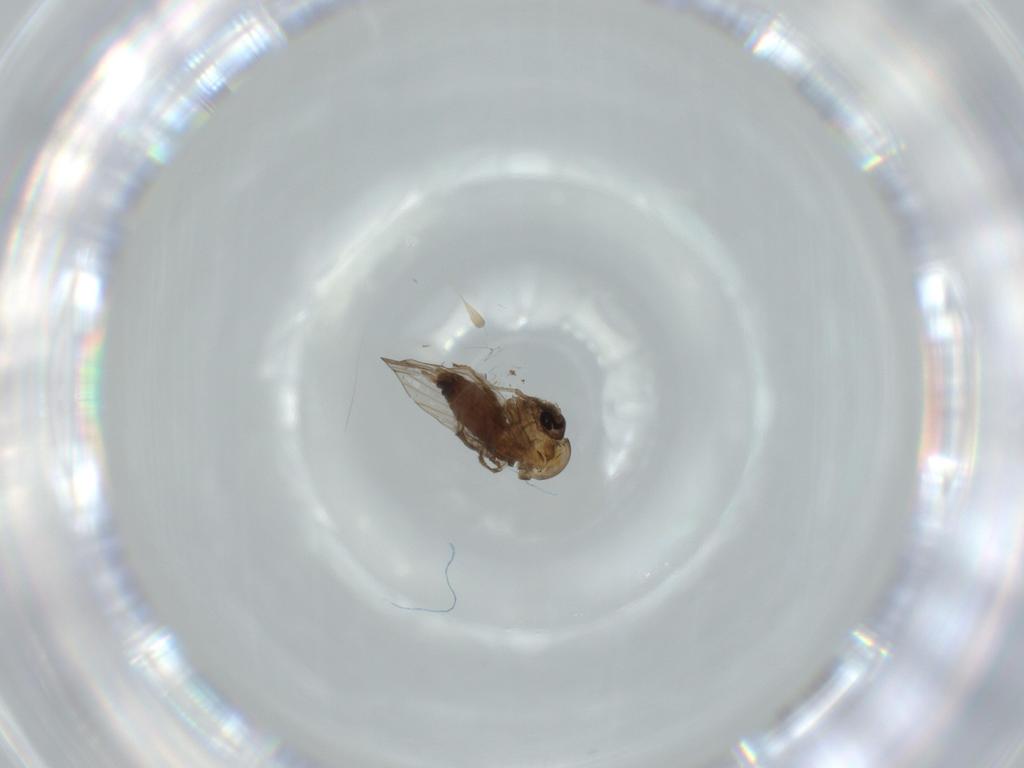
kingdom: Animalia
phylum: Arthropoda
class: Insecta
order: Diptera
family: Psychodidae
